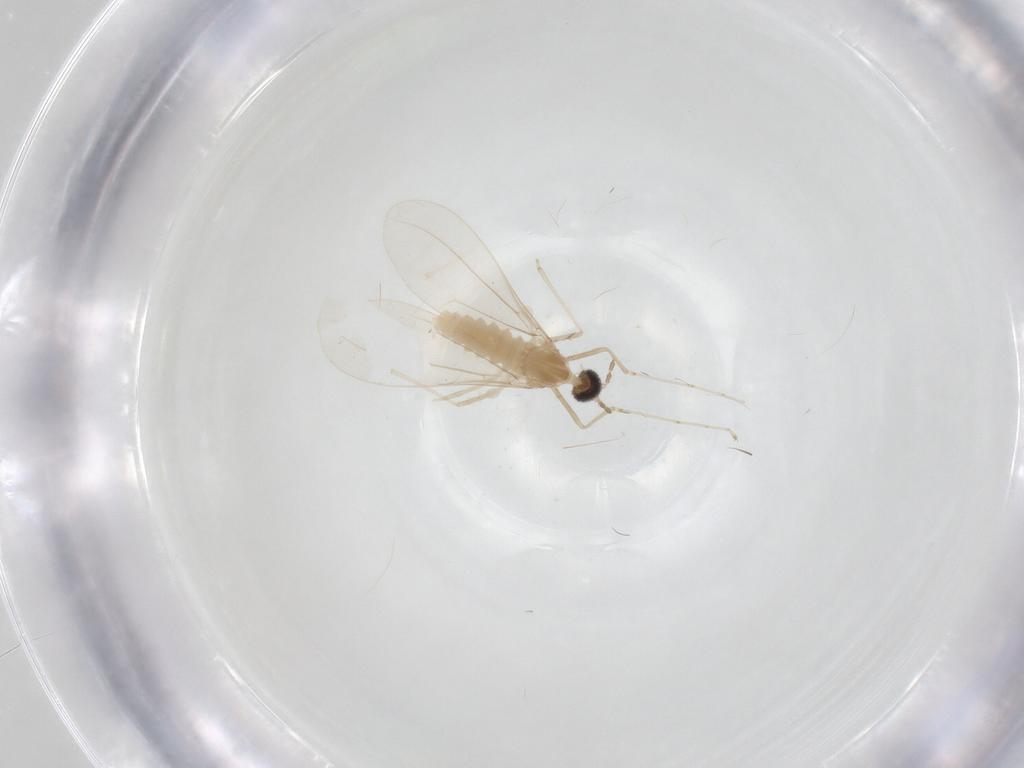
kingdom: Animalia
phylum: Arthropoda
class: Insecta
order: Diptera
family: Cecidomyiidae
